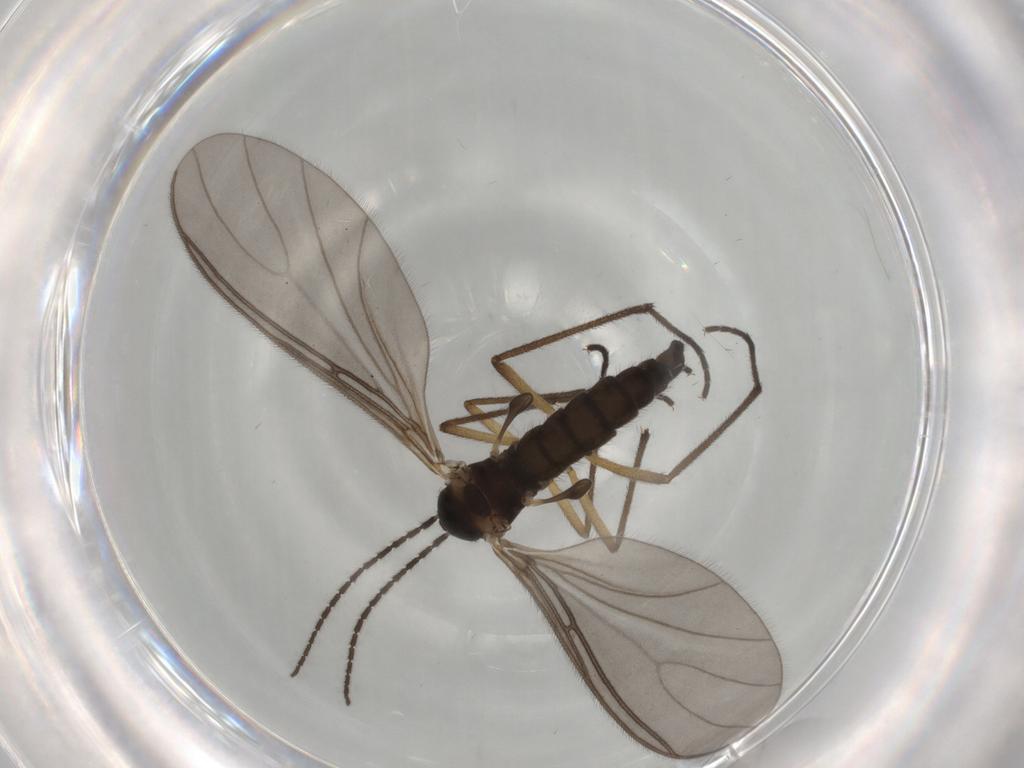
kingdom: Animalia
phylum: Arthropoda
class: Insecta
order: Diptera
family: Sciaridae
